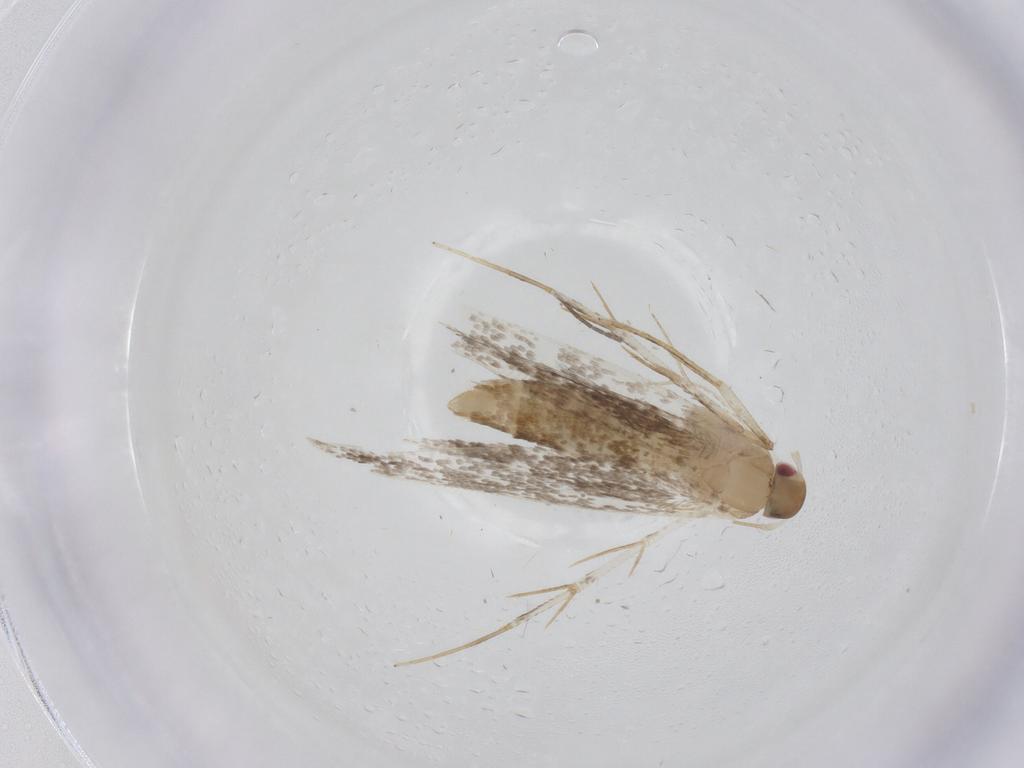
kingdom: Animalia
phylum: Arthropoda
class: Insecta
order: Lepidoptera
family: Cosmopterigidae
